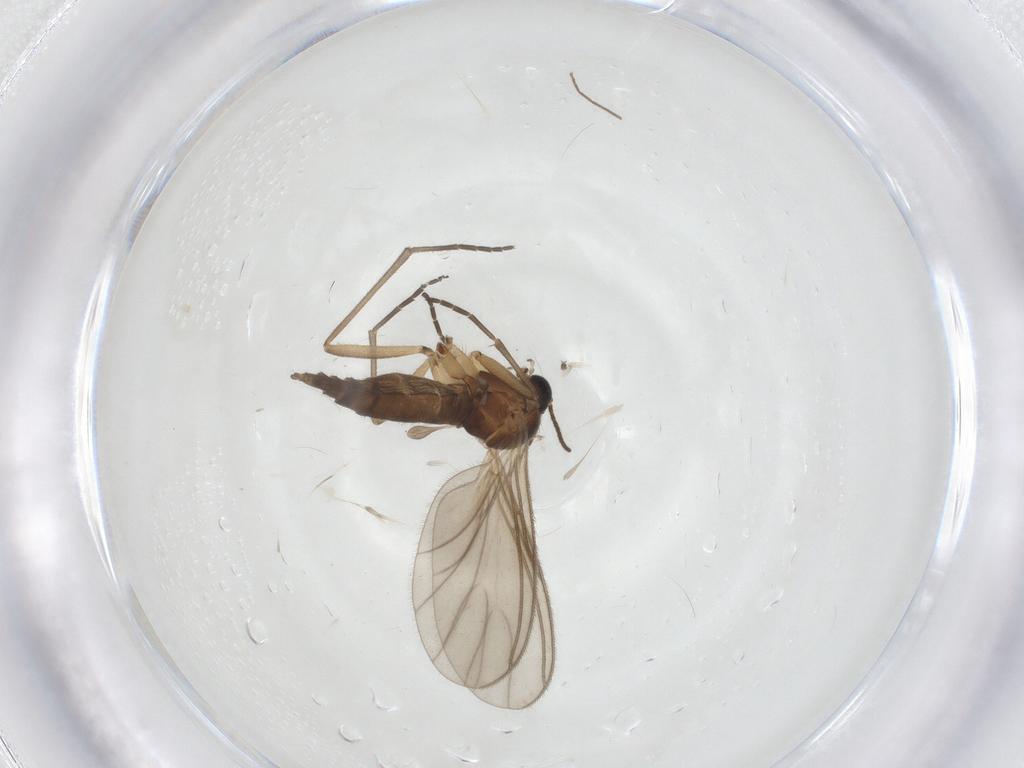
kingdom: Animalia
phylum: Arthropoda
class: Insecta
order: Diptera
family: Sciaridae
